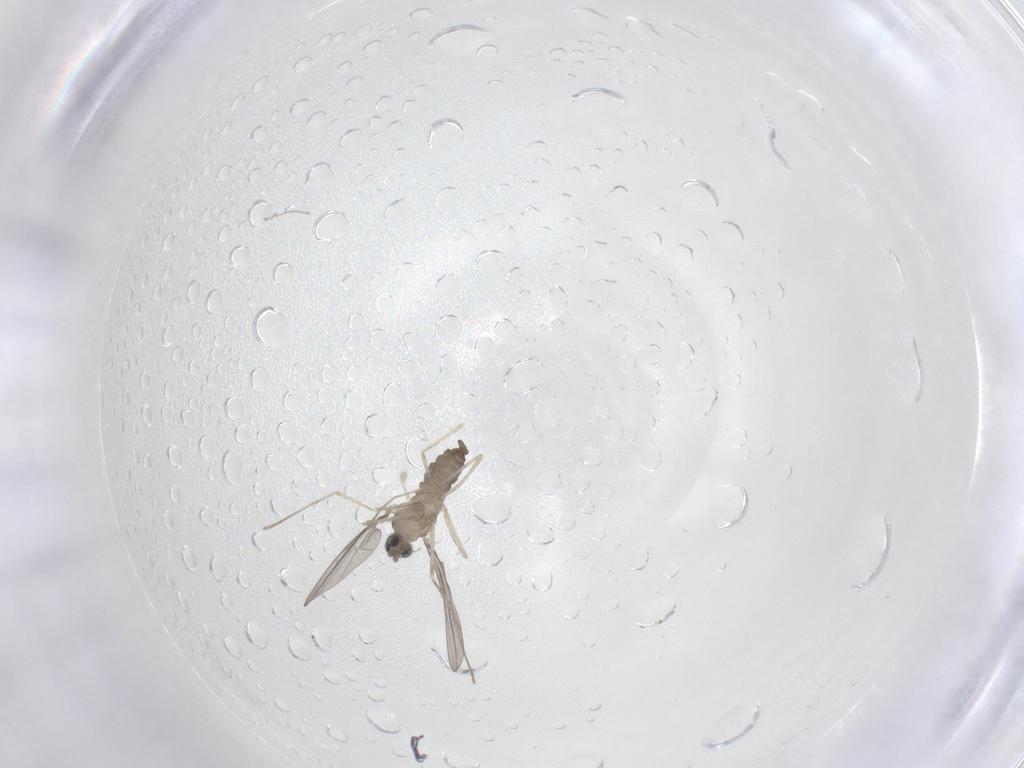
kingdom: Animalia
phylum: Arthropoda
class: Insecta
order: Diptera
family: Cecidomyiidae
